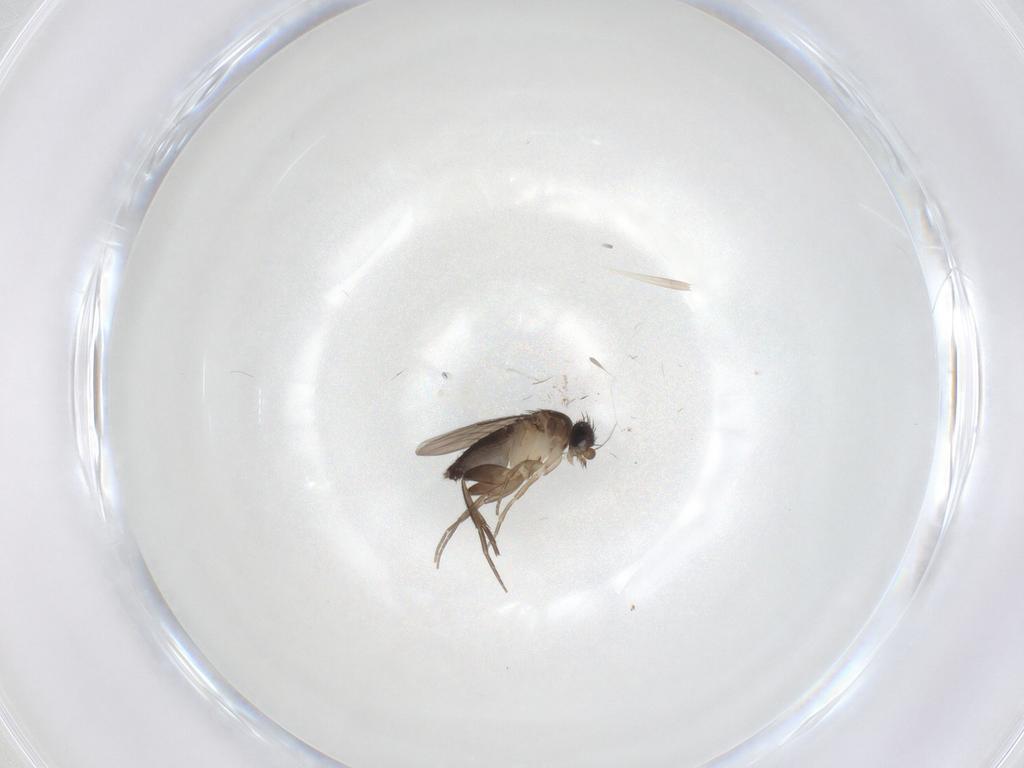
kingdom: Animalia
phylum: Arthropoda
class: Insecta
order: Diptera
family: Phoridae
